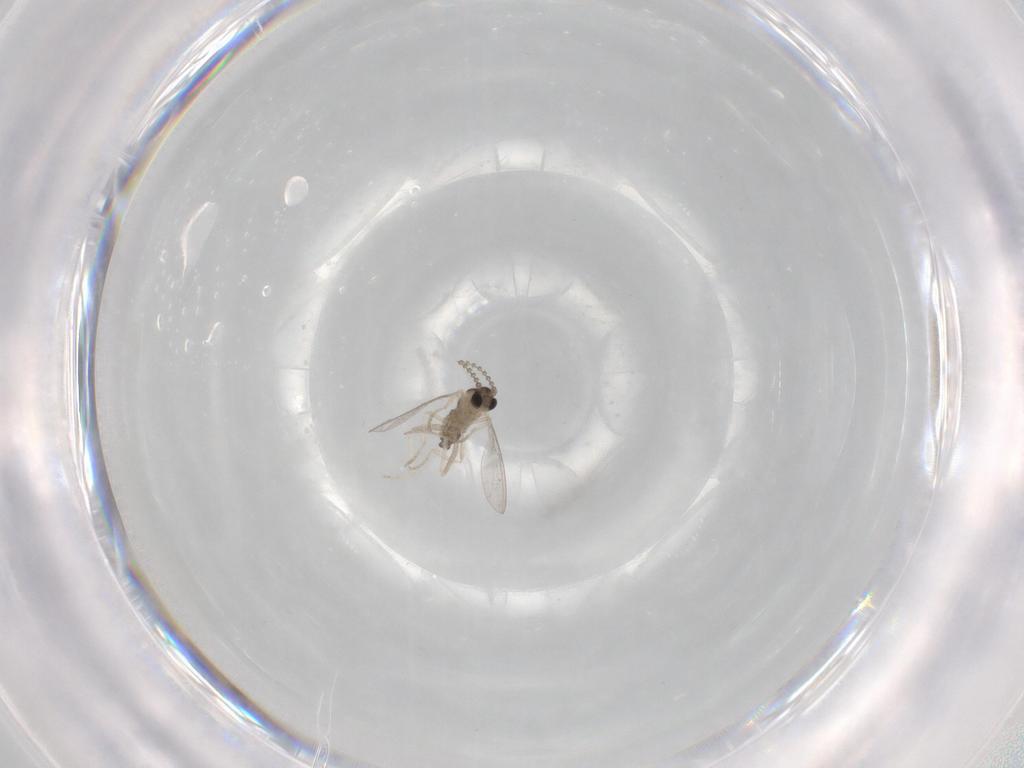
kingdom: Animalia
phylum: Arthropoda
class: Insecta
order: Diptera
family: Cecidomyiidae
